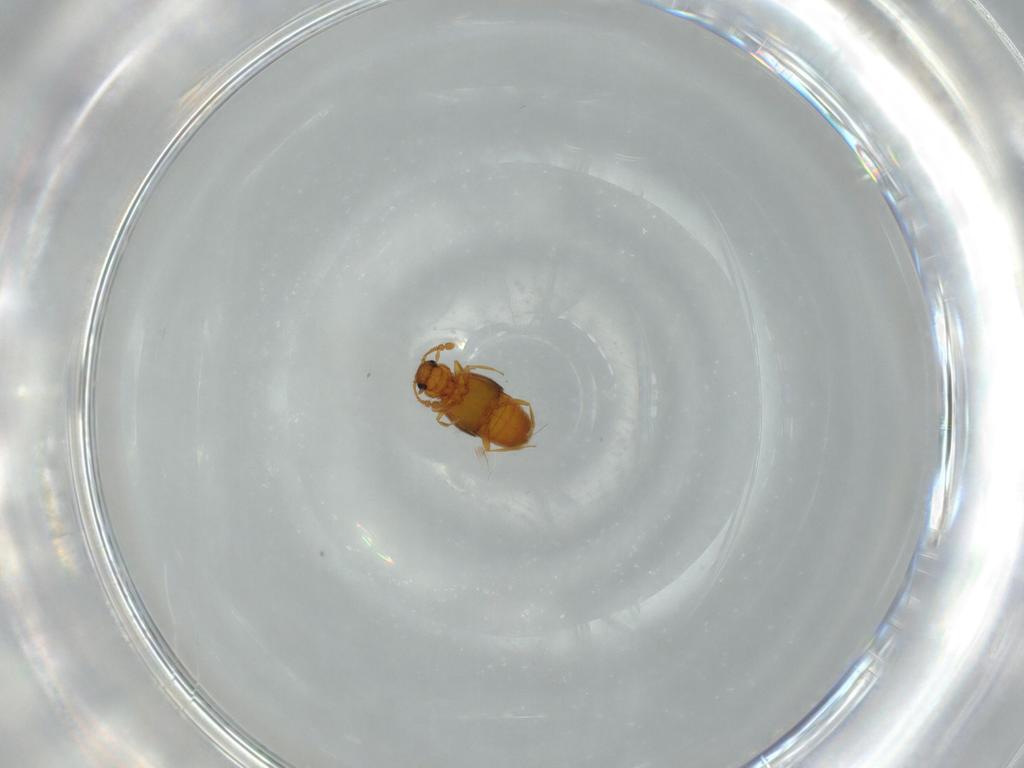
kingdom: Animalia
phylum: Arthropoda
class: Insecta
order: Coleoptera
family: Staphylinidae
